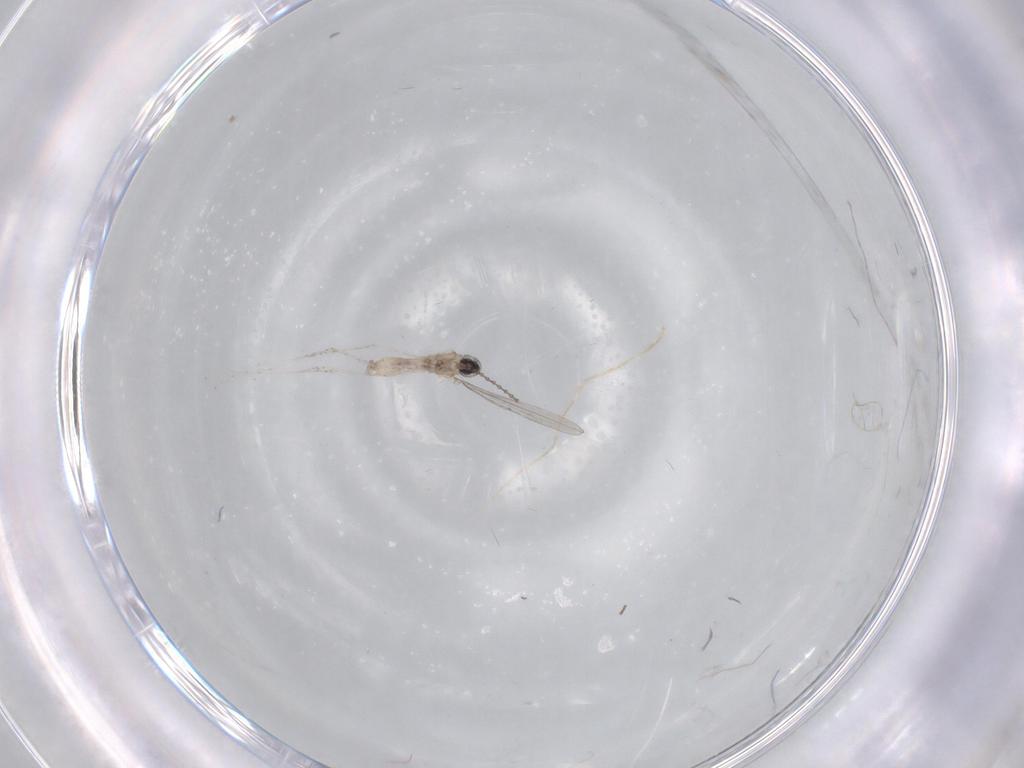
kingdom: Animalia
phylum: Arthropoda
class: Insecta
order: Diptera
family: Cecidomyiidae
